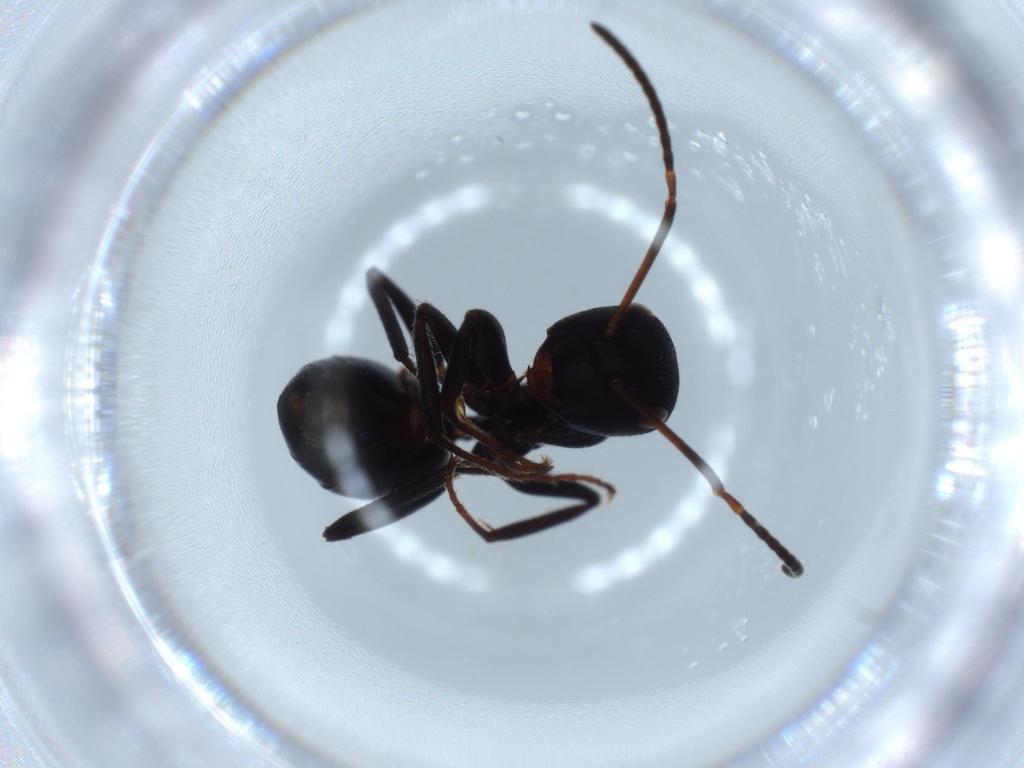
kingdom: Animalia
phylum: Arthropoda
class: Insecta
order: Hymenoptera
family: Formicidae
